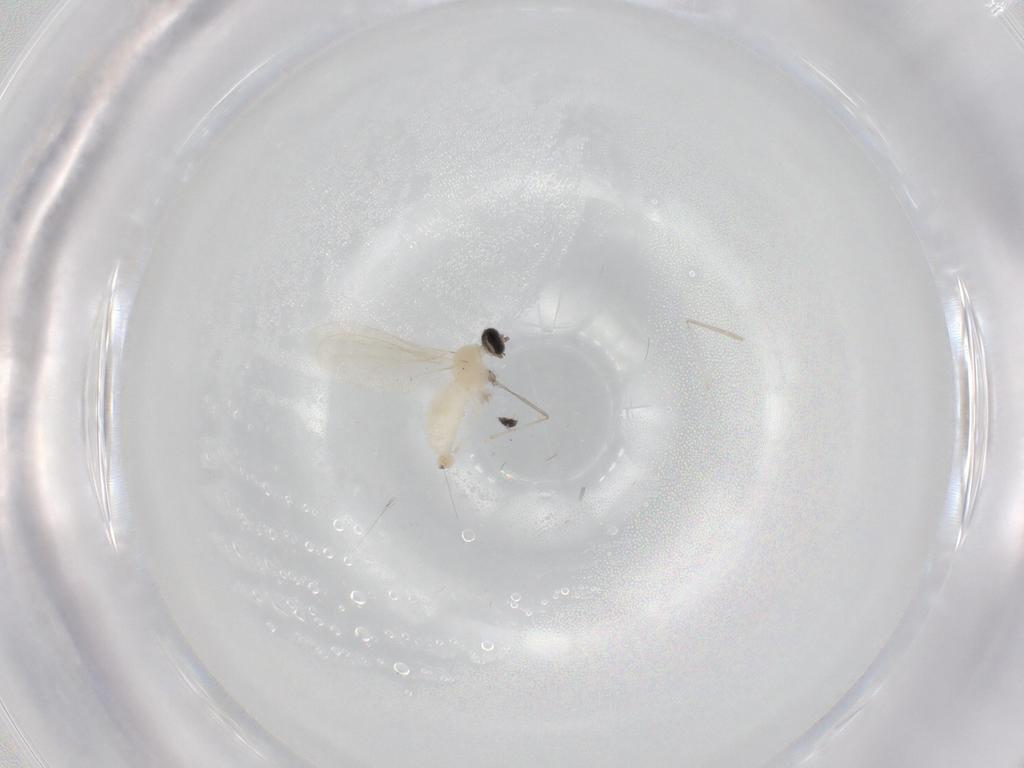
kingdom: Animalia
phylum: Arthropoda
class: Insecta
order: Diptera
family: Cecidomyiidae
